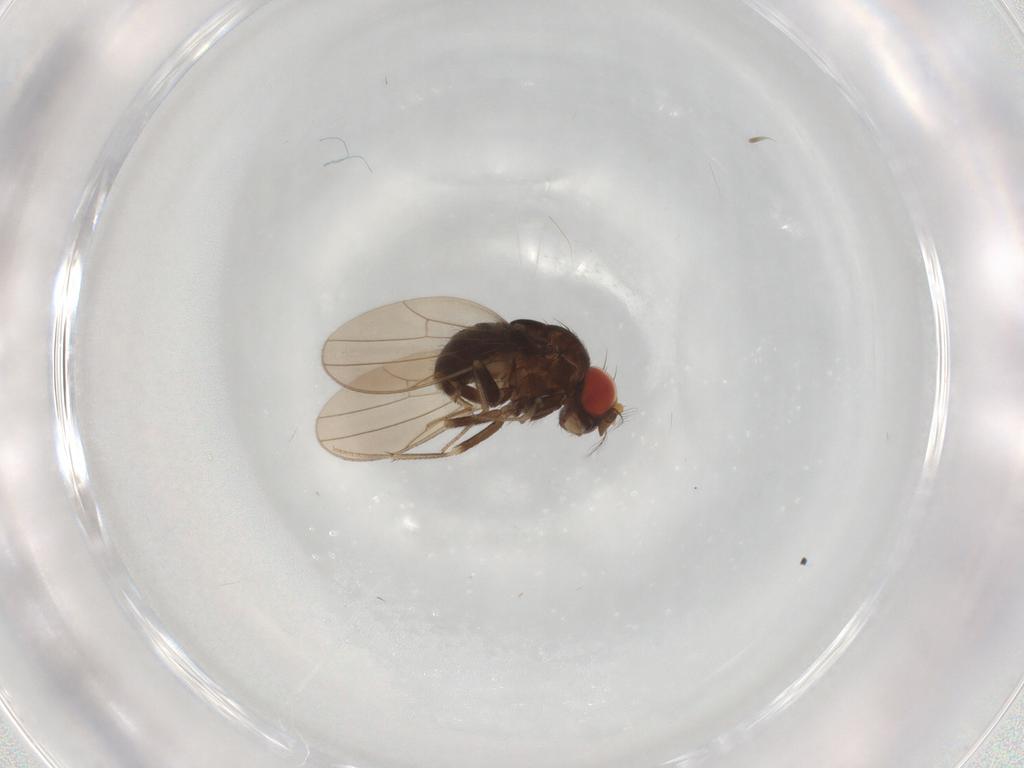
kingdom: Animalia
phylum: Arthropoda
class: Insecta
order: Diptera
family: Drosophilidae
